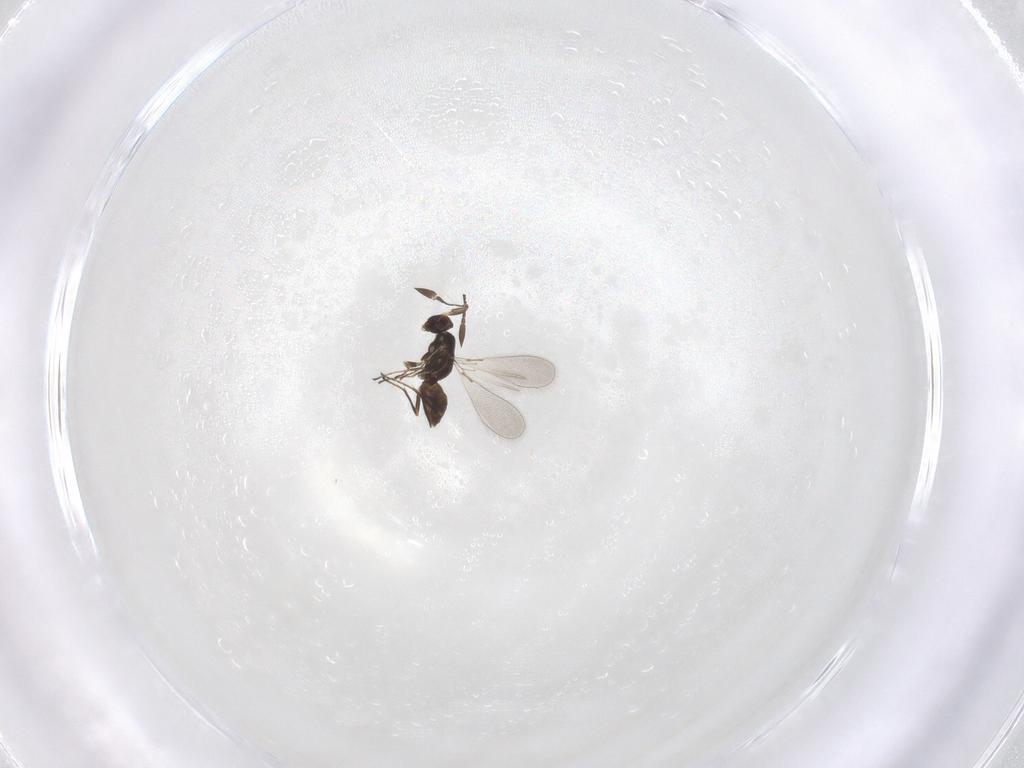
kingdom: Animalia
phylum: Arthropoda
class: Insecta
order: Hymenoptera
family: Mymaridae
